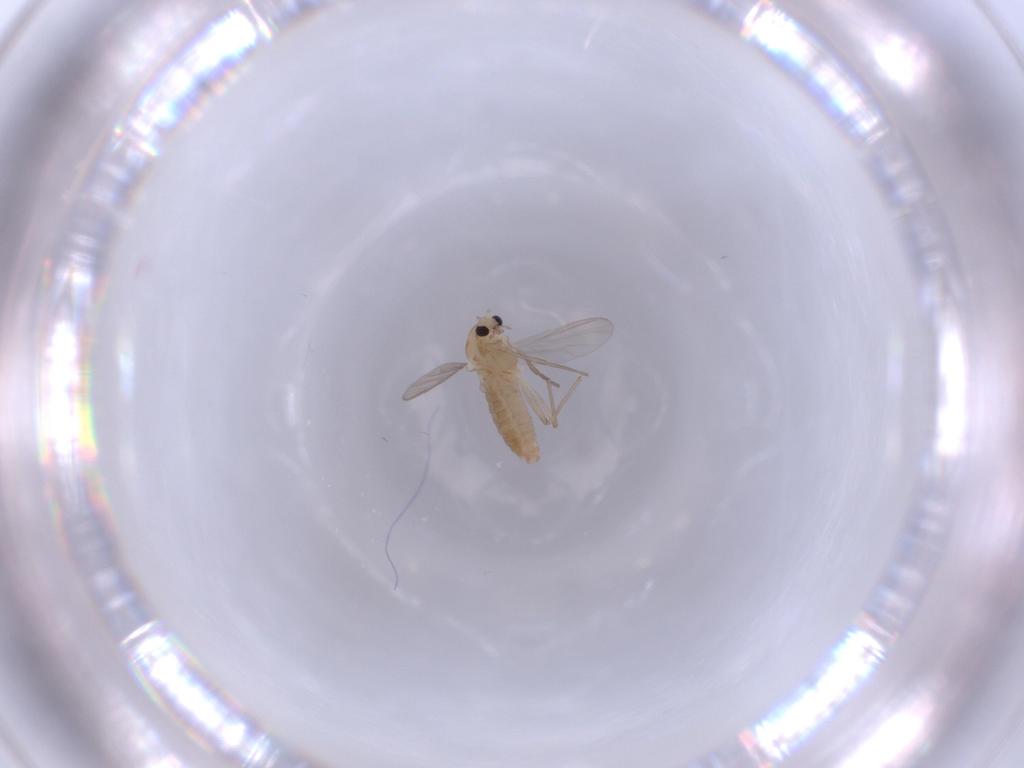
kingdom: Animalia
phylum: Arthropoda
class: Insecta
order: Diptera
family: Chironomidae
